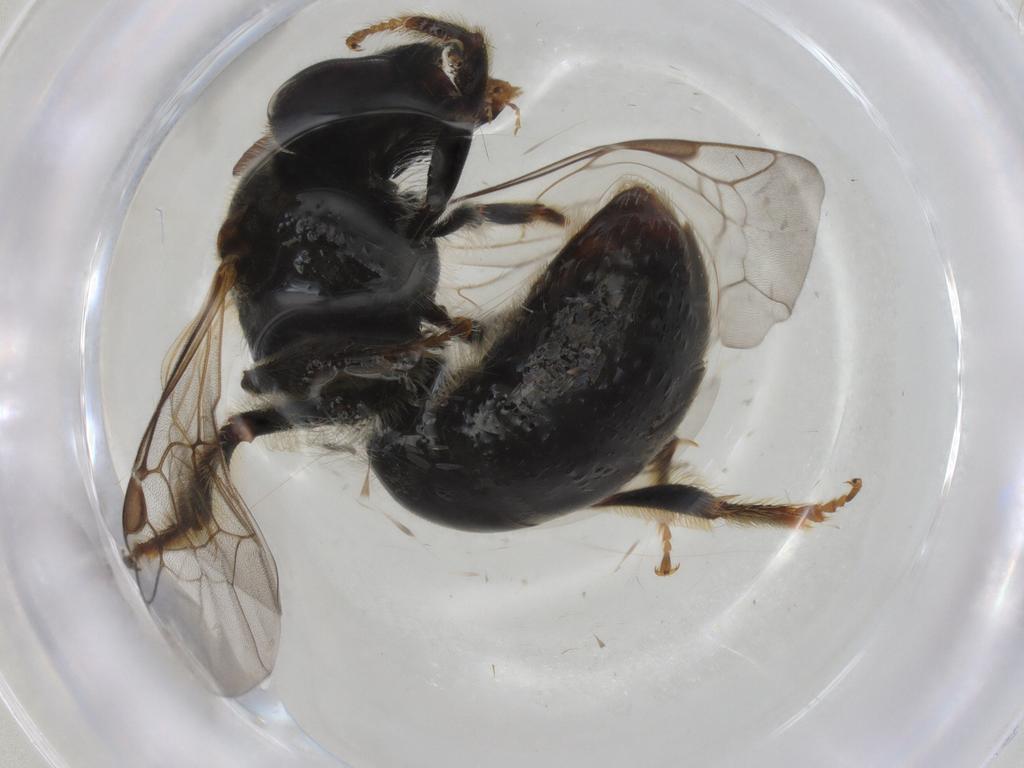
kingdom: Animalia
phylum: Arthropoda
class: Insecta
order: Hymenoptera
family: Halictidae
